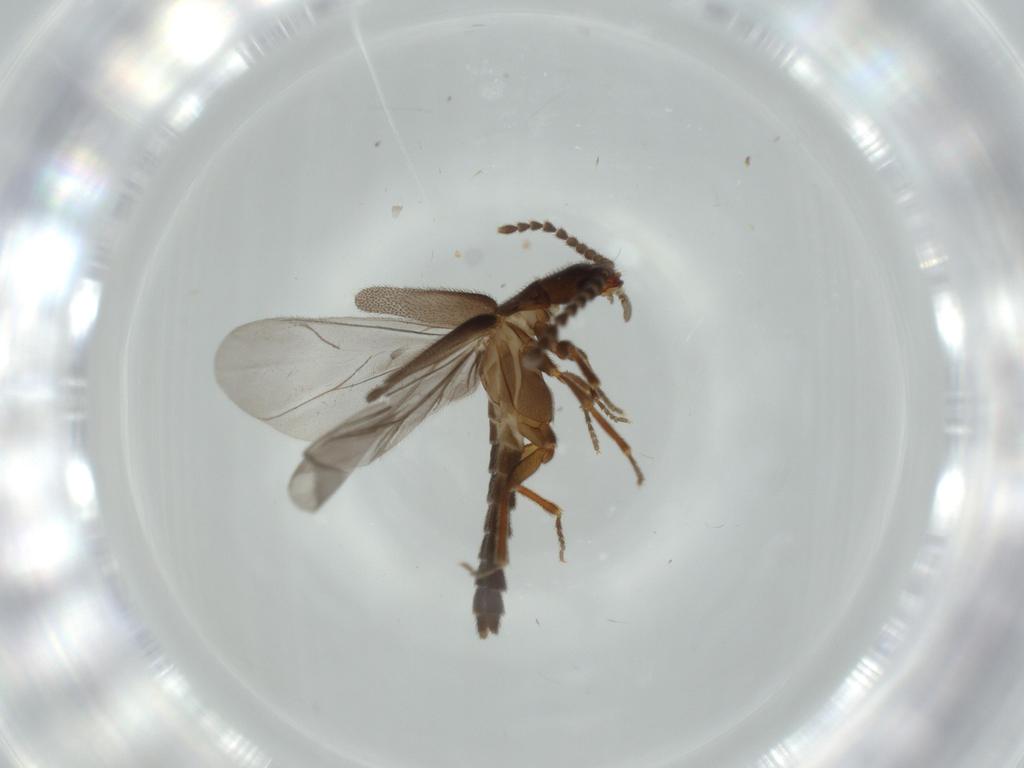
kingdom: Animalia
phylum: Arthropoda
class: Insecta
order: Coleoptera
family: Omethidae
